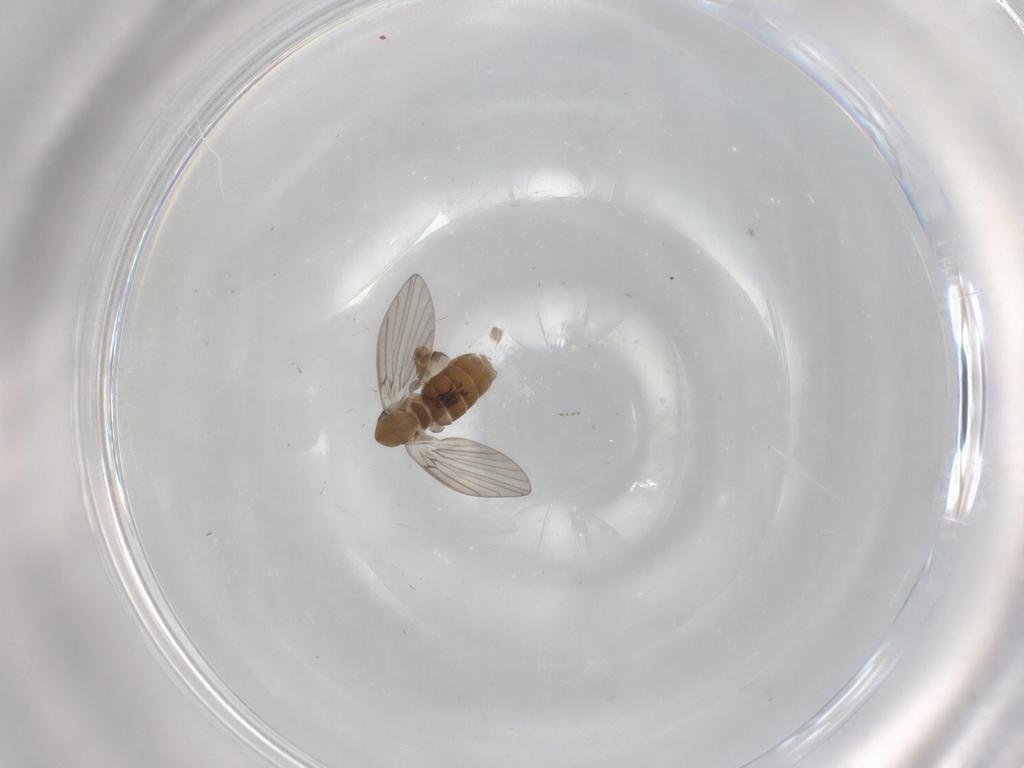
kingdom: Animalia
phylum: Arthropoda
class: Insecta
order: Diptera
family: Psychodidae
